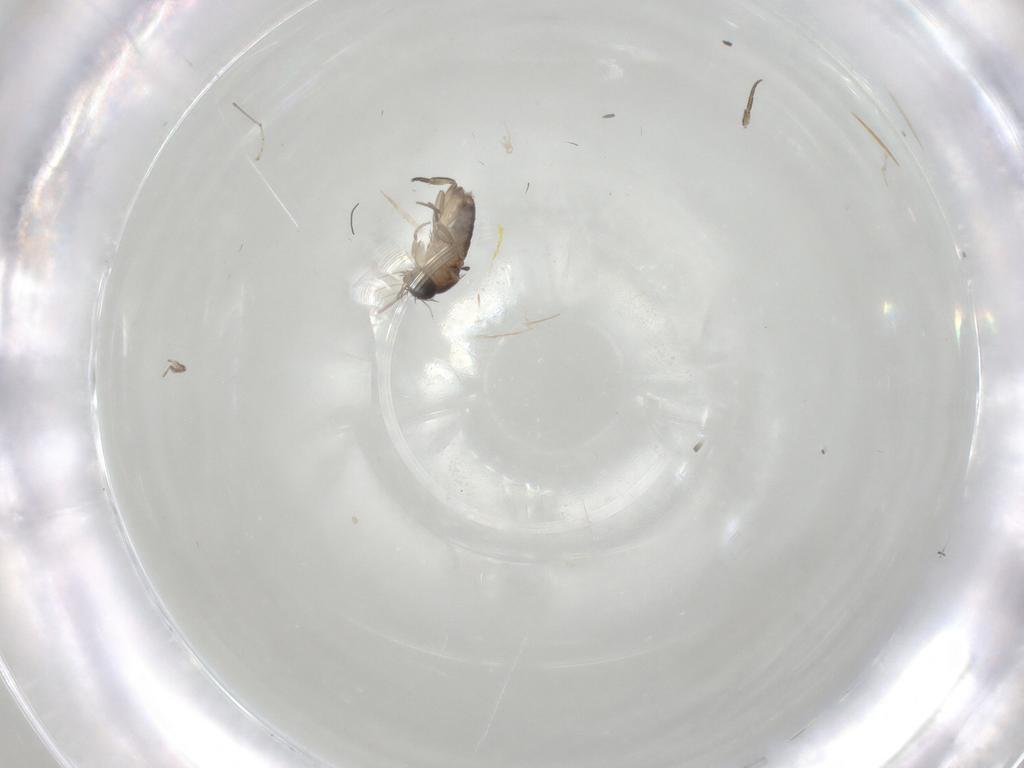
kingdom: Animalia
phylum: Arthropoda
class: Insecta
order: Diptera
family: Phoridae
